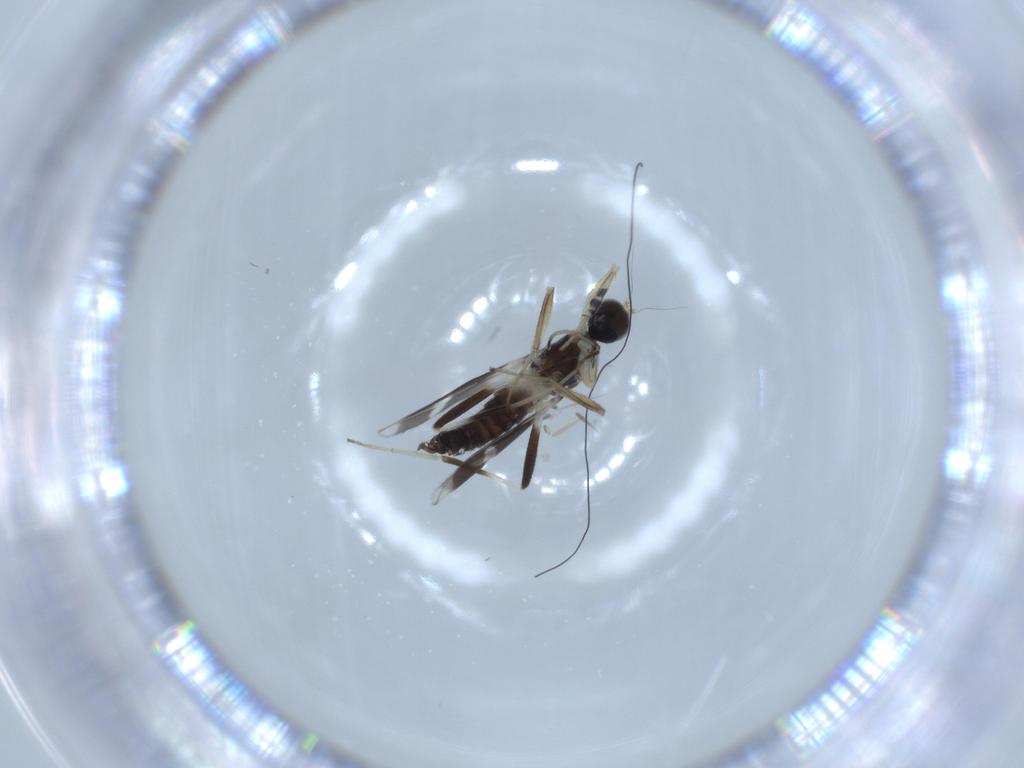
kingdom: Animalia
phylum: Arthropoda
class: Insecta
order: Diptera
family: Hybotidae
